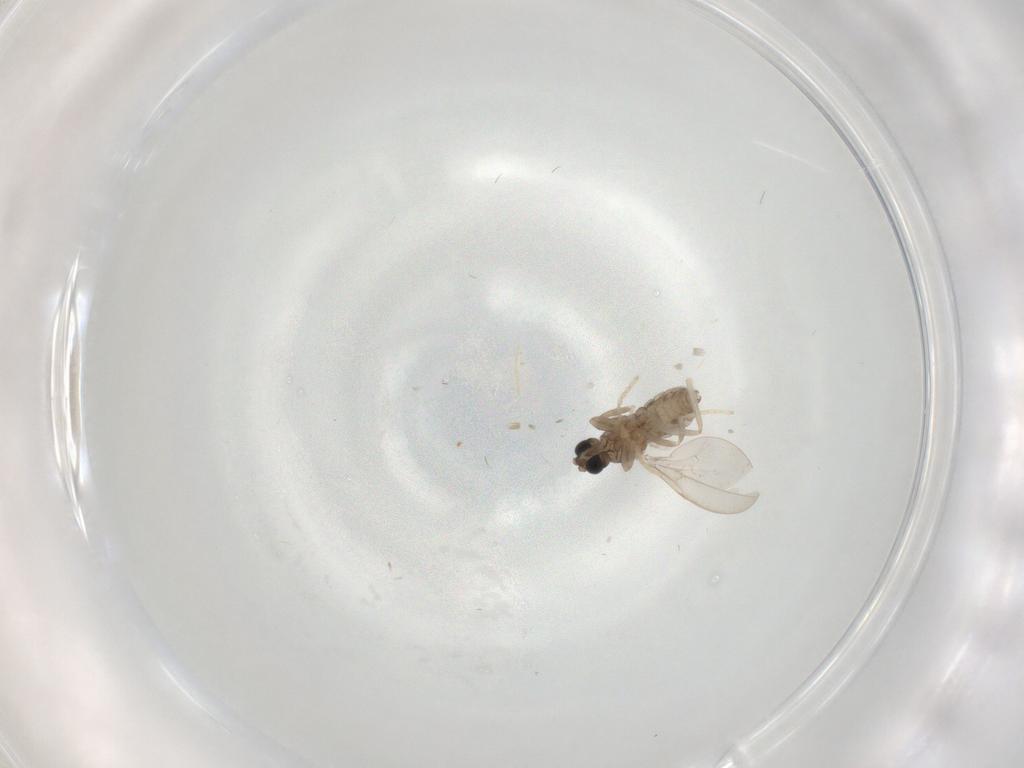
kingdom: Animalia
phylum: Arthropoda
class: Insecta
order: Diptera
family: Cecidomyiidae
